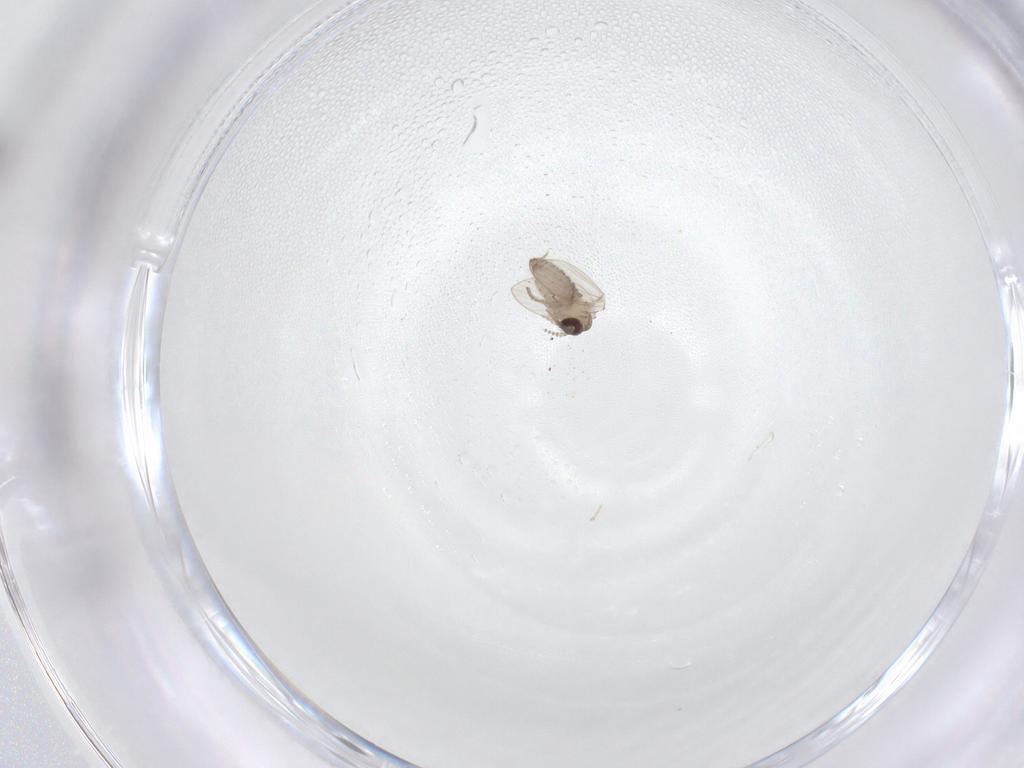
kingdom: Animalia
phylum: Arthropoda
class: Insecta
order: Diptera
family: Psychodidae
